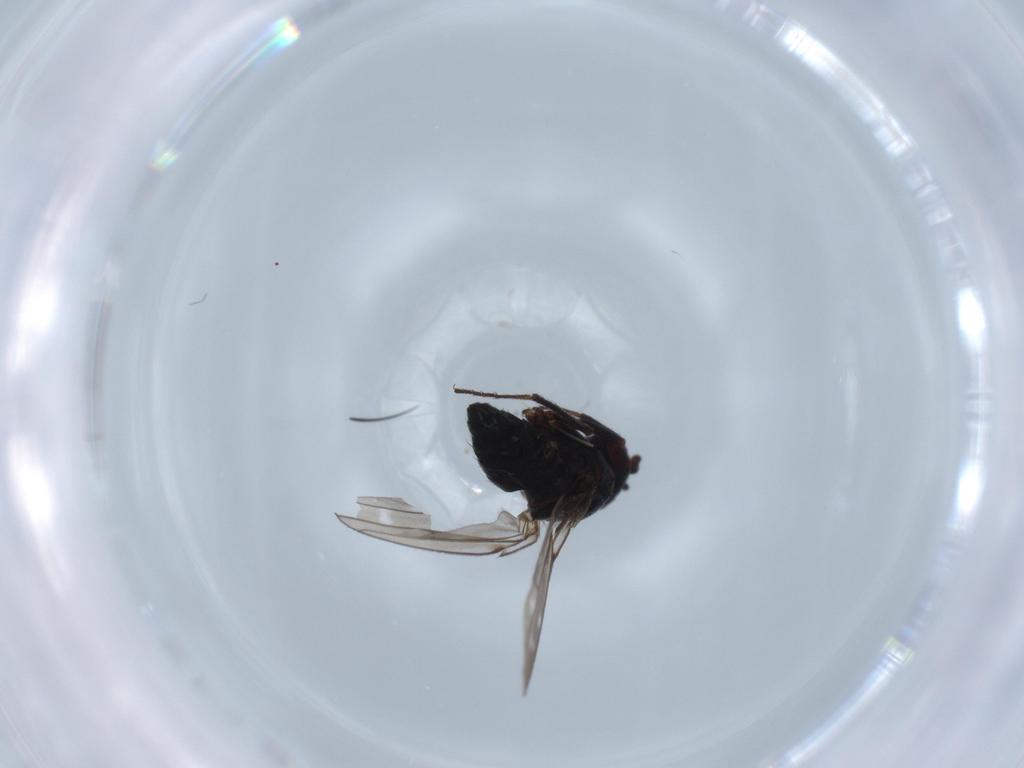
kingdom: Animalia
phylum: Arthropoda
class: Insecta
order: Diptera
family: Ephydridae
